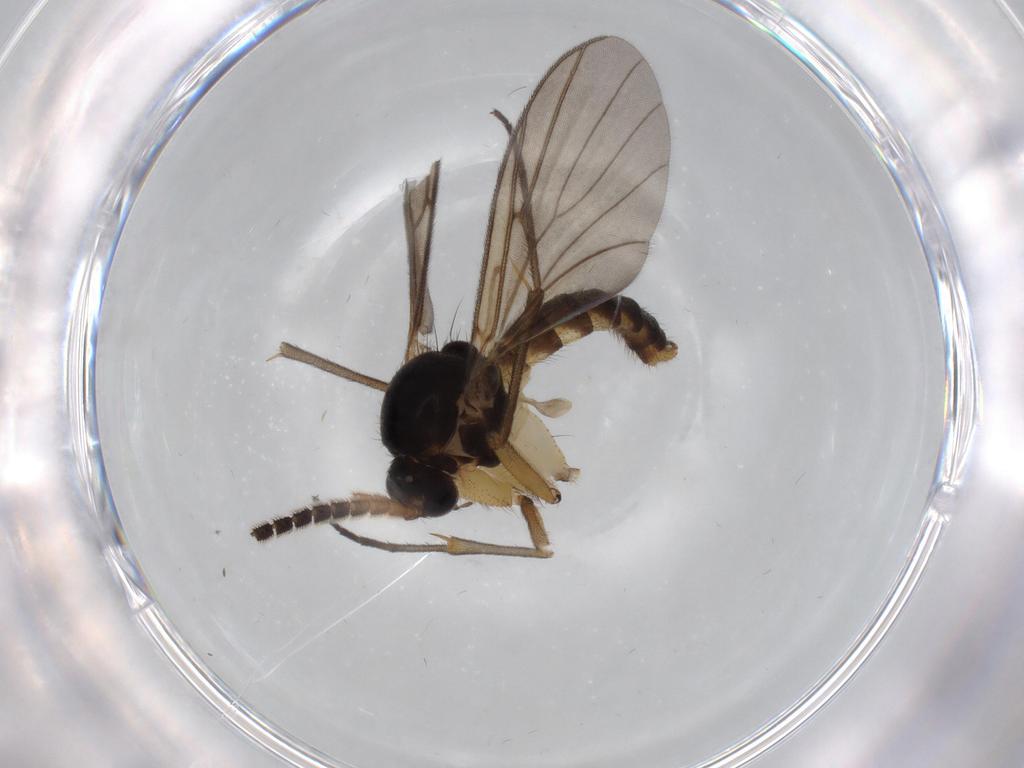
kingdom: Animalia
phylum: Arthropoda
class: Insecta
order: Diptera
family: Mycetophilidae
